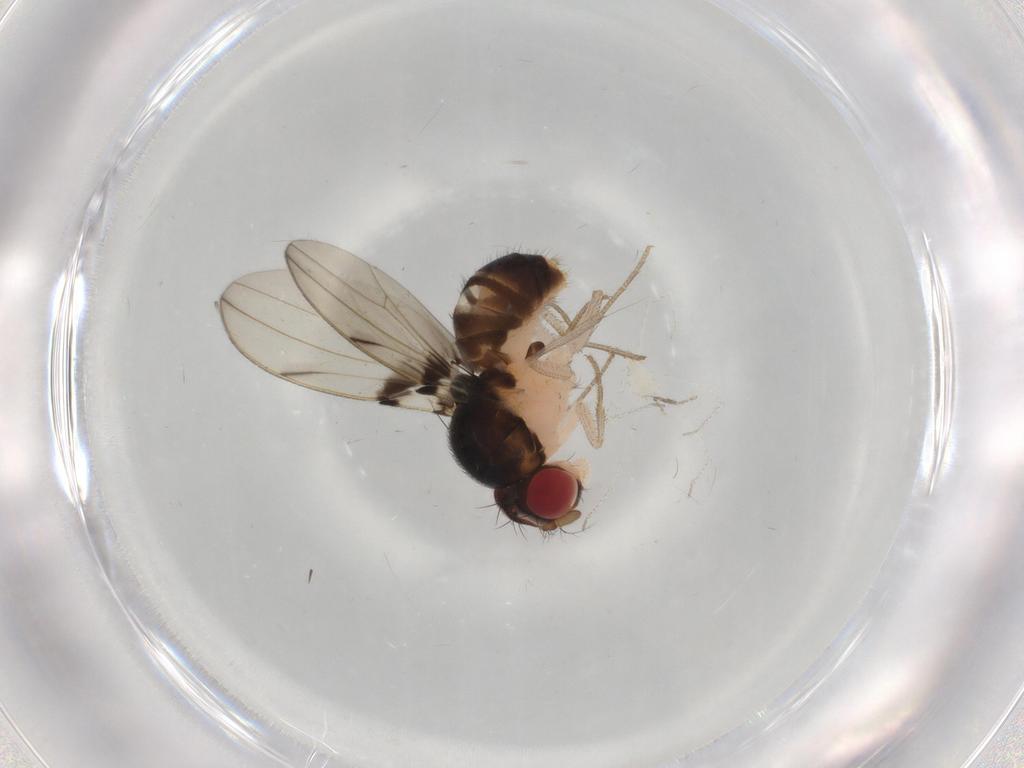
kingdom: Animalia
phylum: Arthropoda
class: Insecta
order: Diptera
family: Drosophilidae
